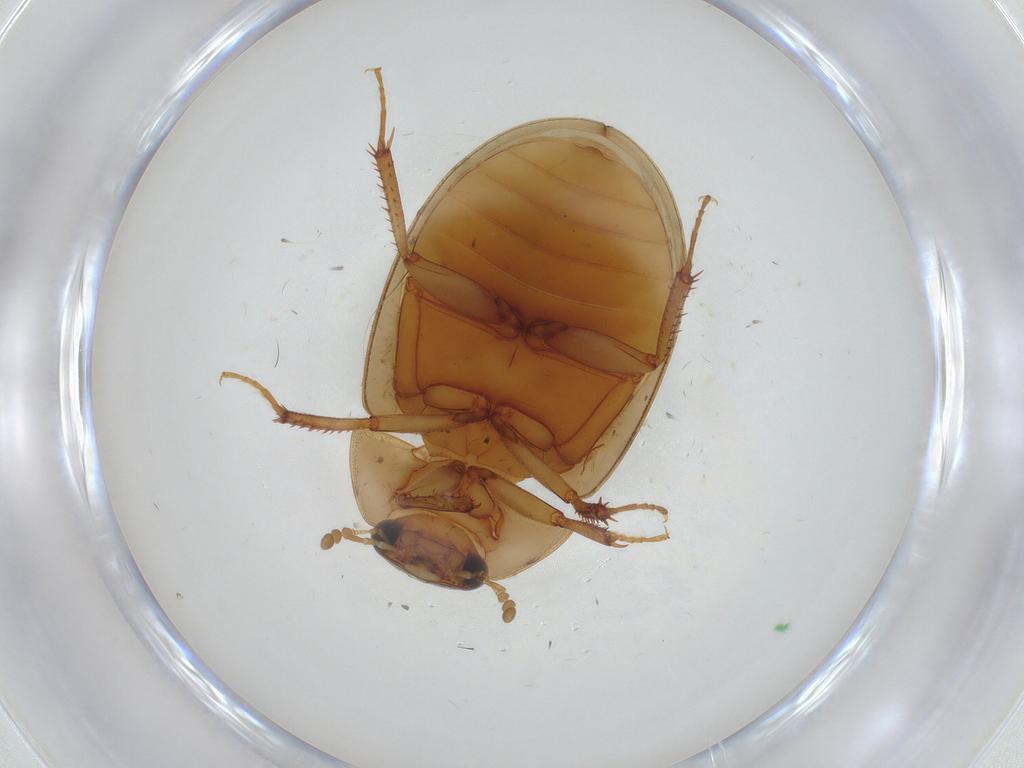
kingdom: Animalia
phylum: Arthropoda
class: Insecta
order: Coleoptera
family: Mordellidae
